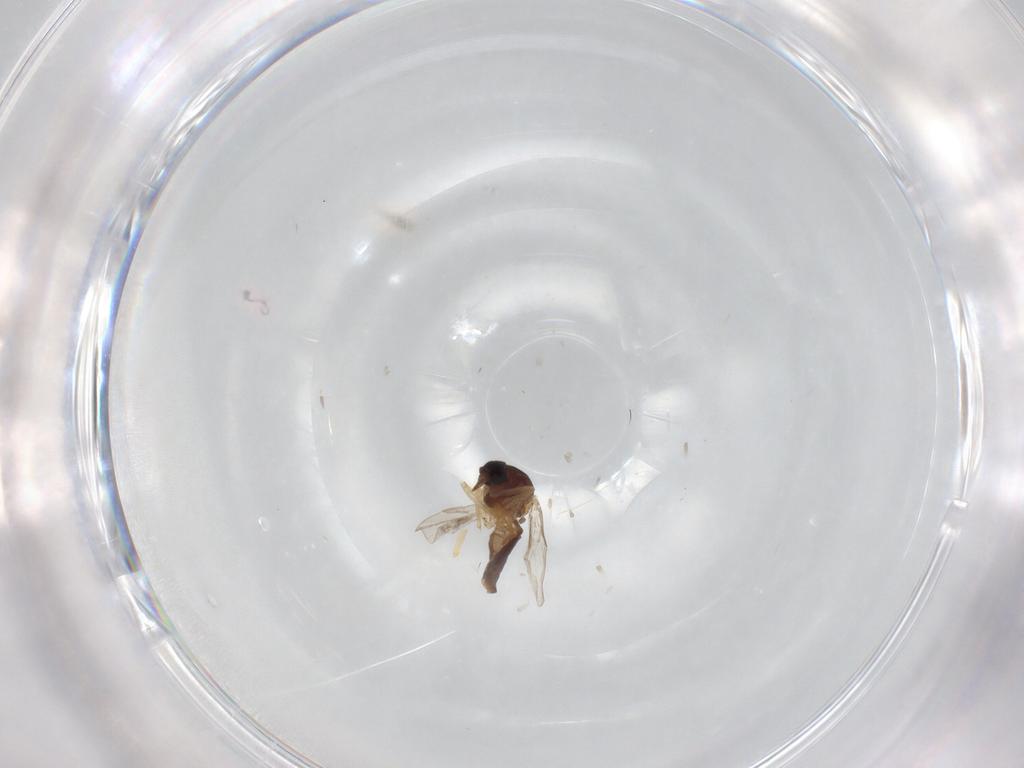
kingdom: Animalia
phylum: Arthropoda
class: Insecta
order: Diptera
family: Ceratopogonidae
